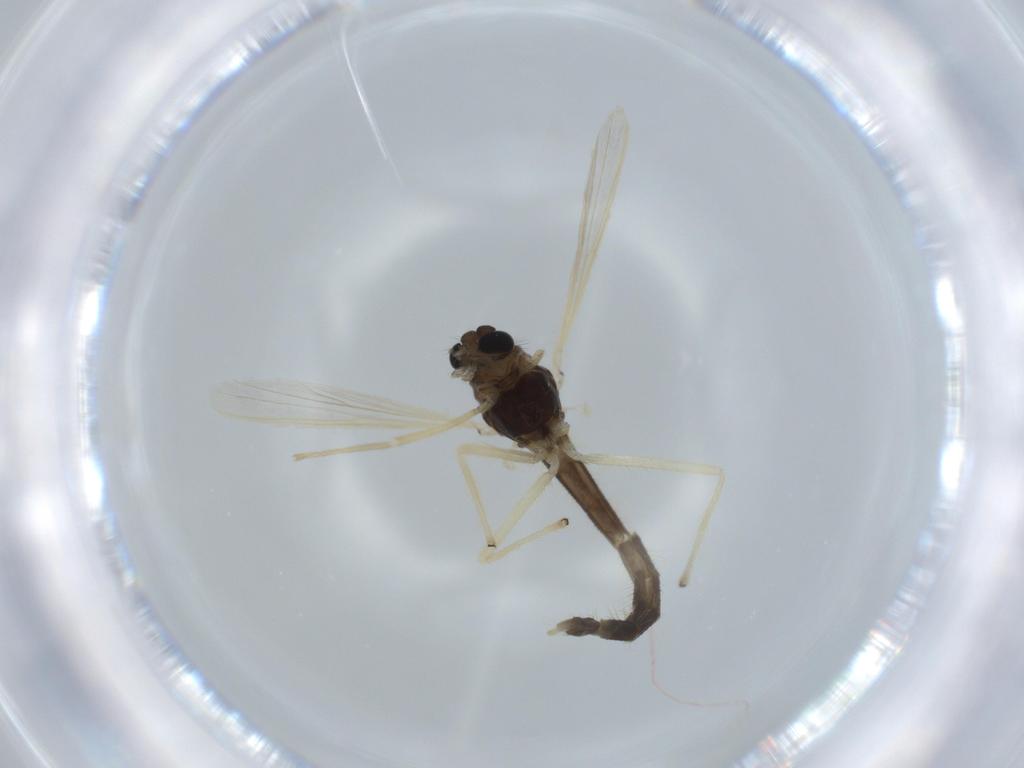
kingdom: Animalia
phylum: Arthropoda
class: Insecta
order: Diptera
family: Chironomidae
